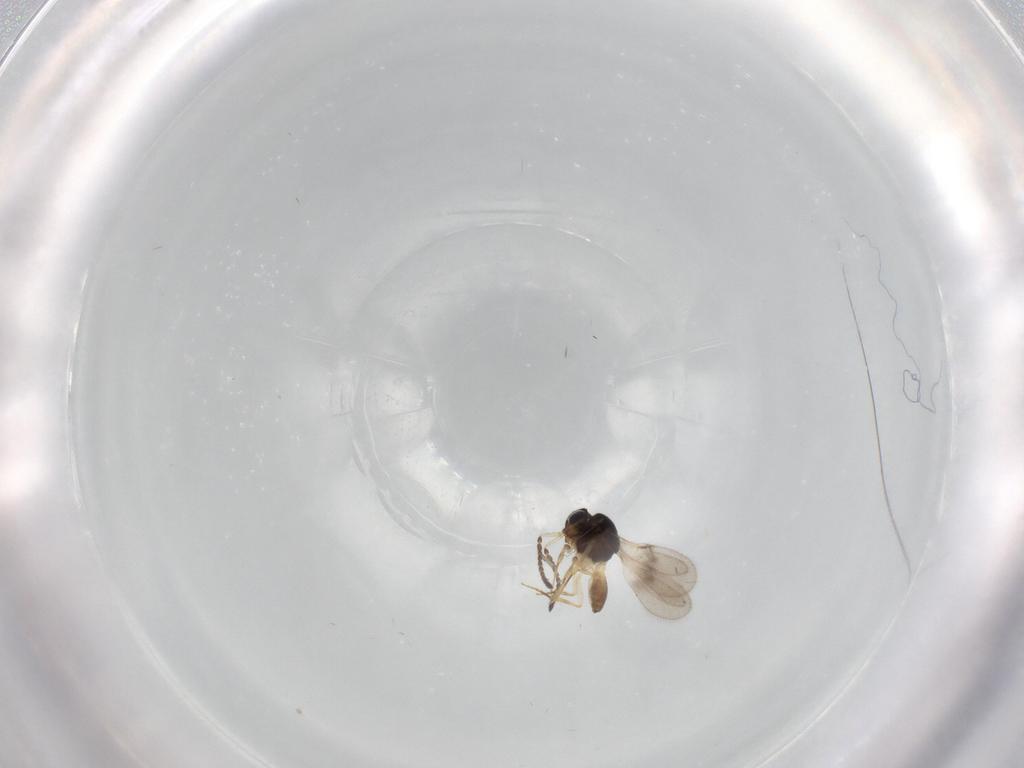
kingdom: Animalia
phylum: Arthropoda
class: Insecta
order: Hymenoptera
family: Scelionidae
